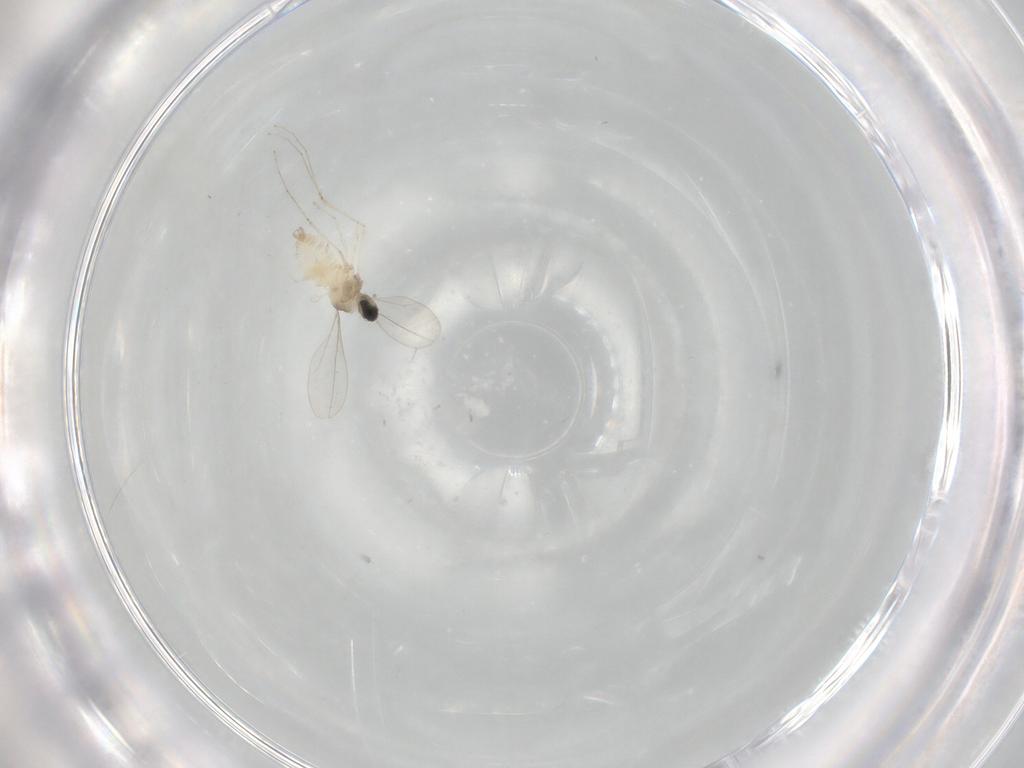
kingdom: Animalia
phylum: Arthropoda
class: Insecta
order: Diptera
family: Cecidomyiidae
